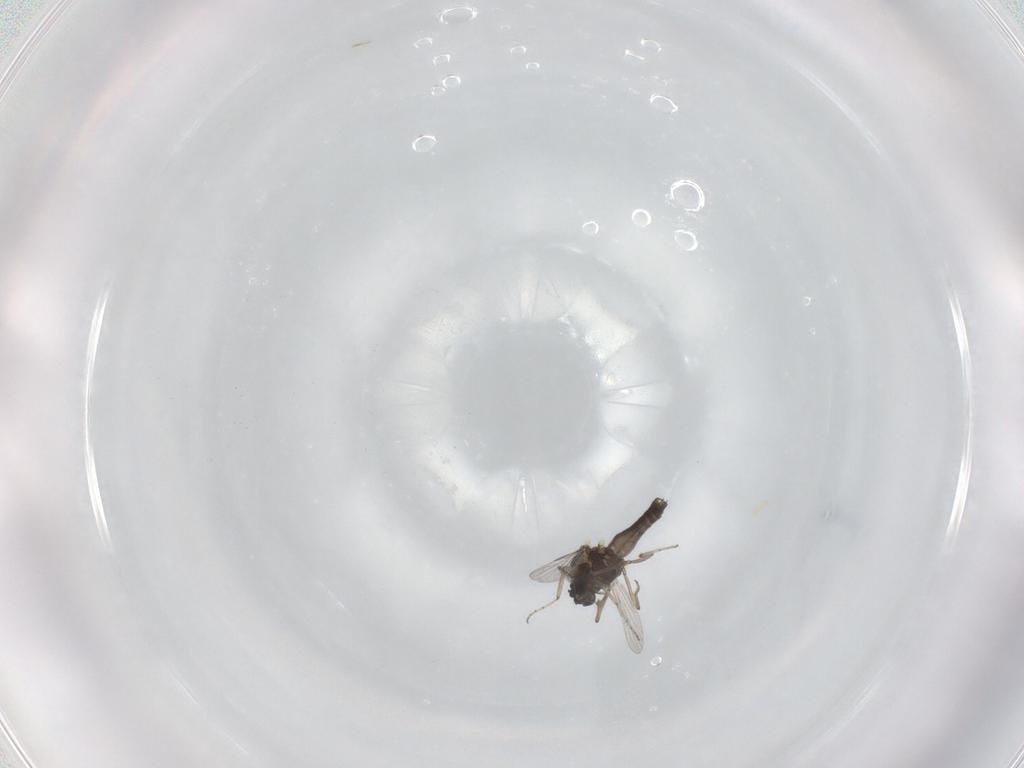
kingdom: Animalia
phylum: Arthropoda
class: Insecta
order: Diptera
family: Ceratopogonidae
